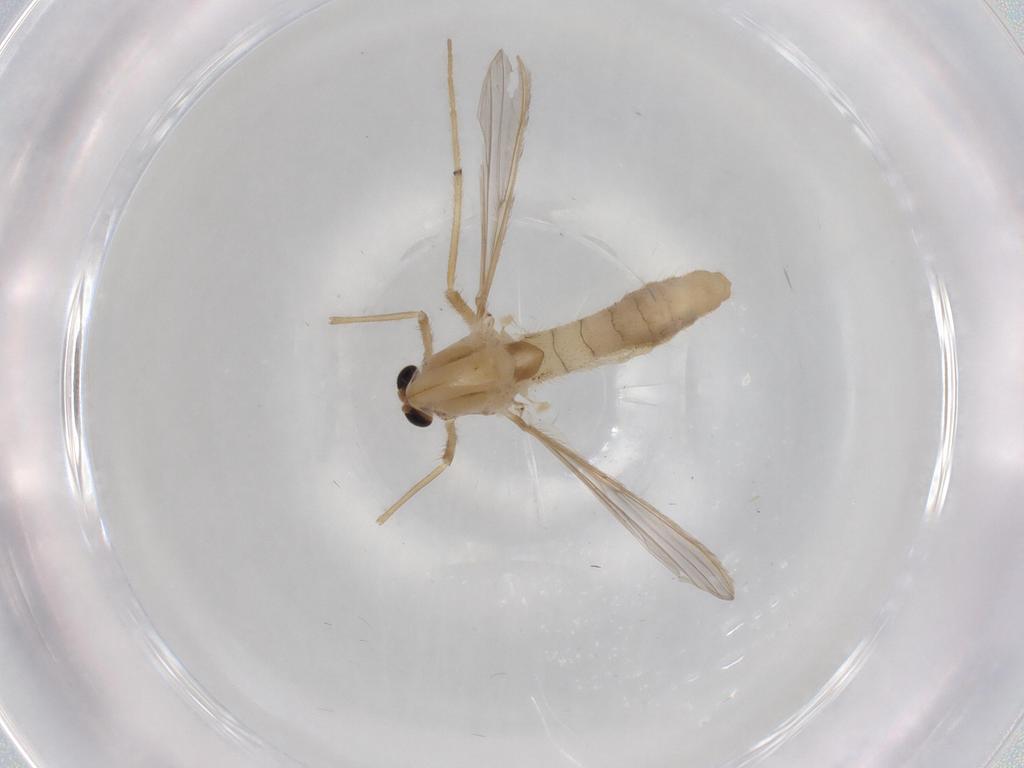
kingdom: Animalia
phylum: Arthropoda
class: Insecta
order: Diptera
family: Chironomidae
